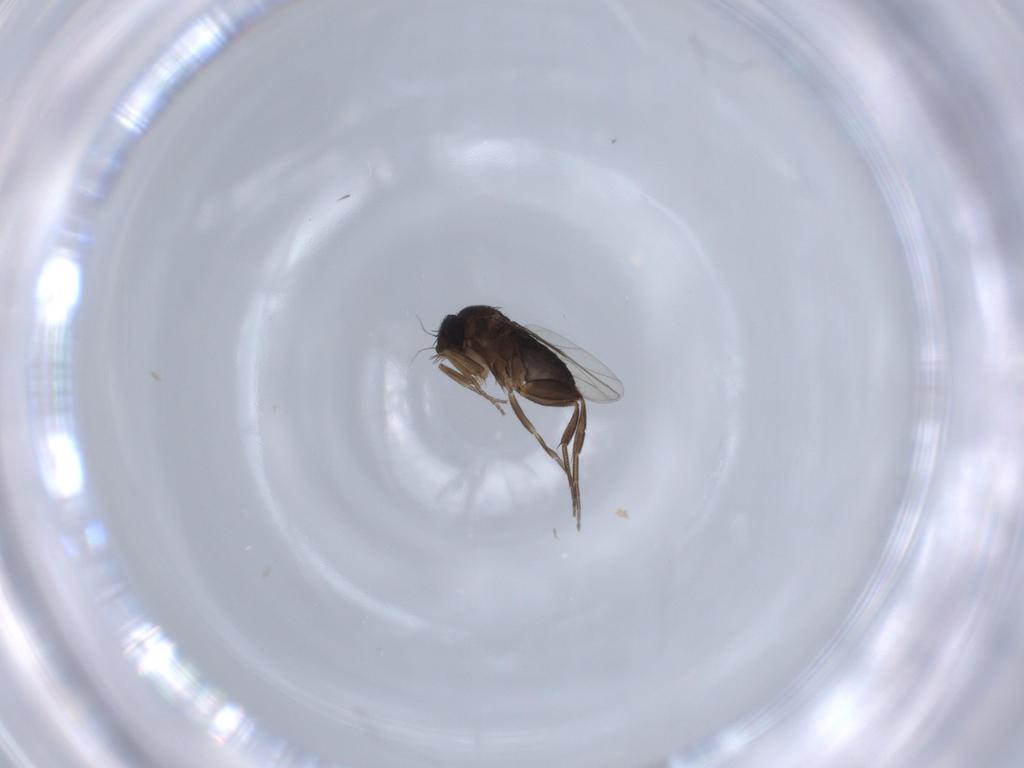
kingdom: Animalia
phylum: Arthropoda
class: Insecta
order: Diptera
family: Phoridae
